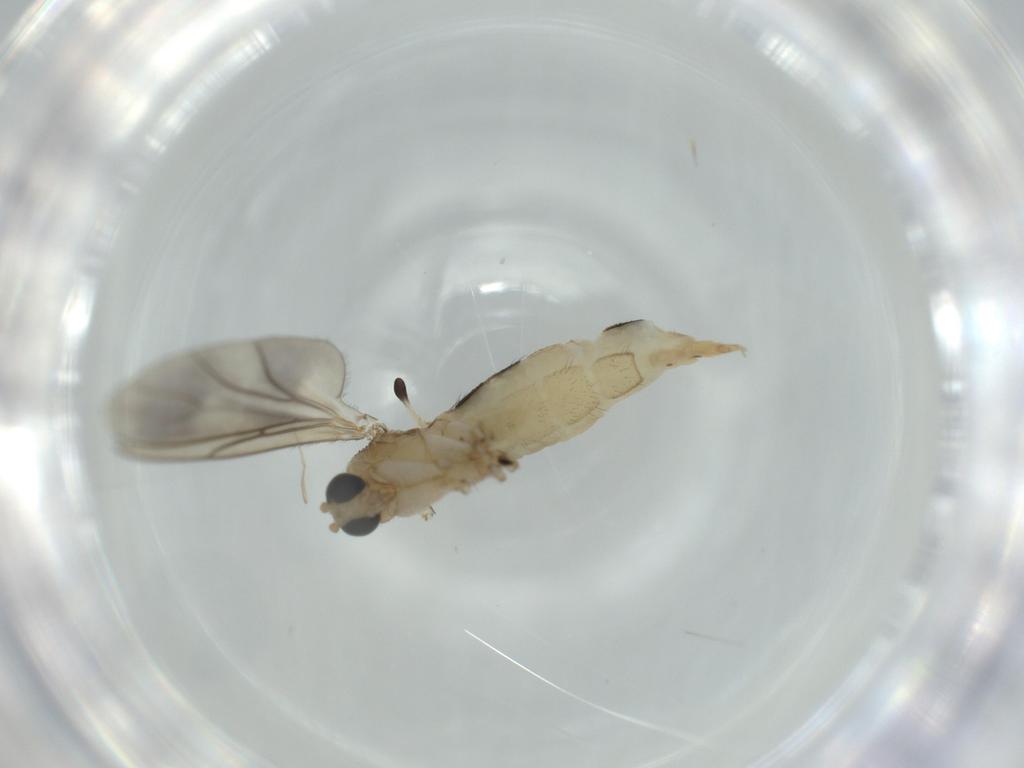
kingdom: Animalia
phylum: Arthropoda
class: Insecta
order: Diptera
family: Sciaridae
